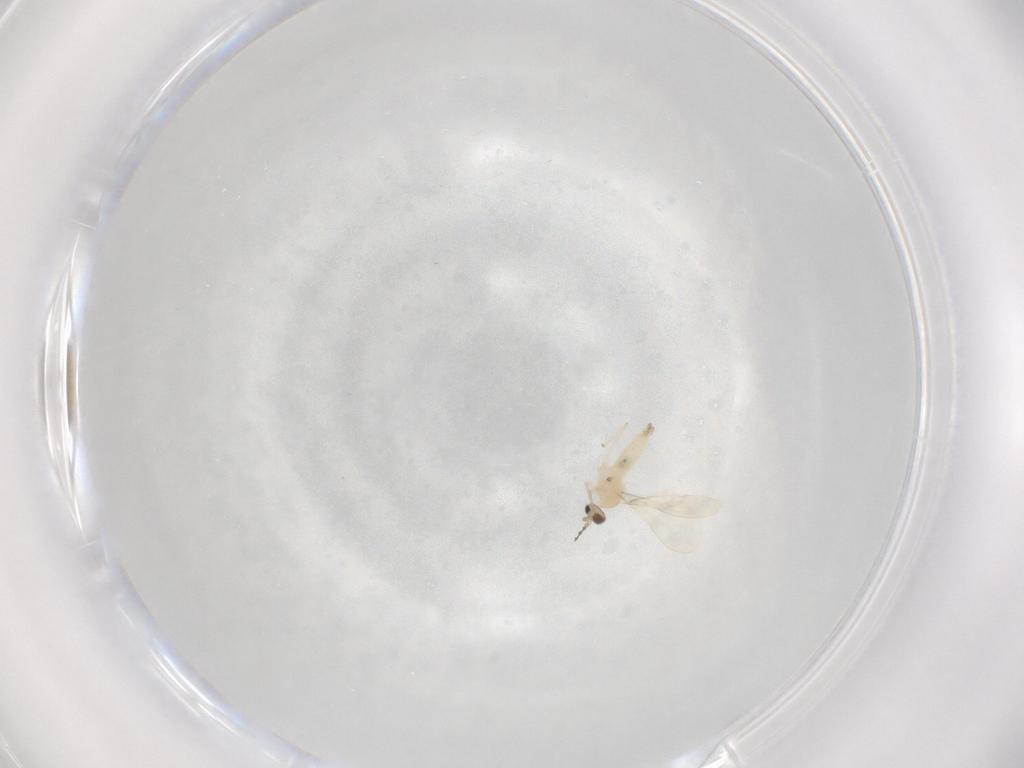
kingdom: Animalia
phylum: Arthropoda
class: Insecta
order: Diptera
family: Cecidomyiidae
